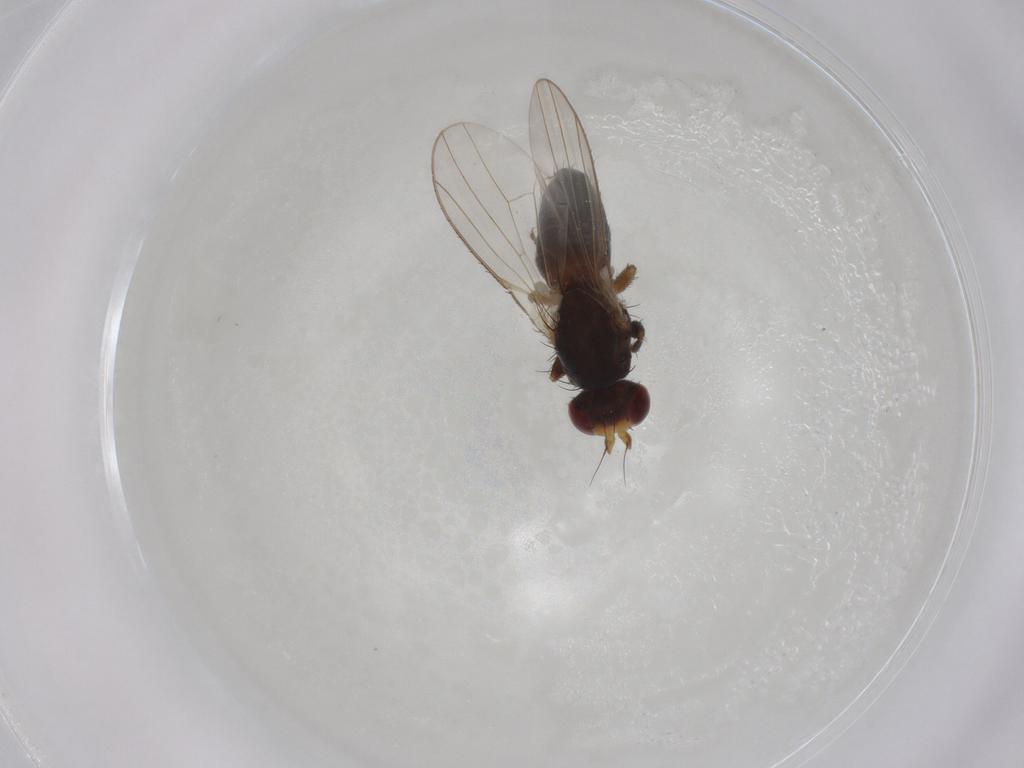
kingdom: Animalia
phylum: Arthropoda
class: Insecta
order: Diptera
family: Heleomyzidae
